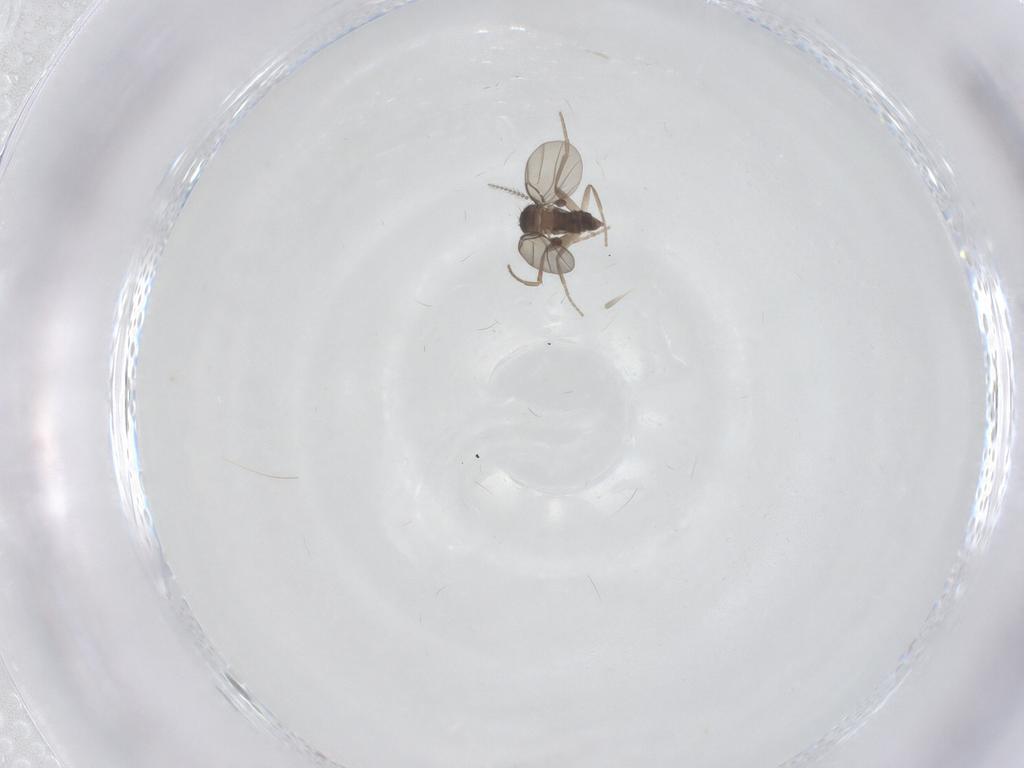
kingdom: Animalia
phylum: Arthropoda
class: Insecta
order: Diptera
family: Phoridae
